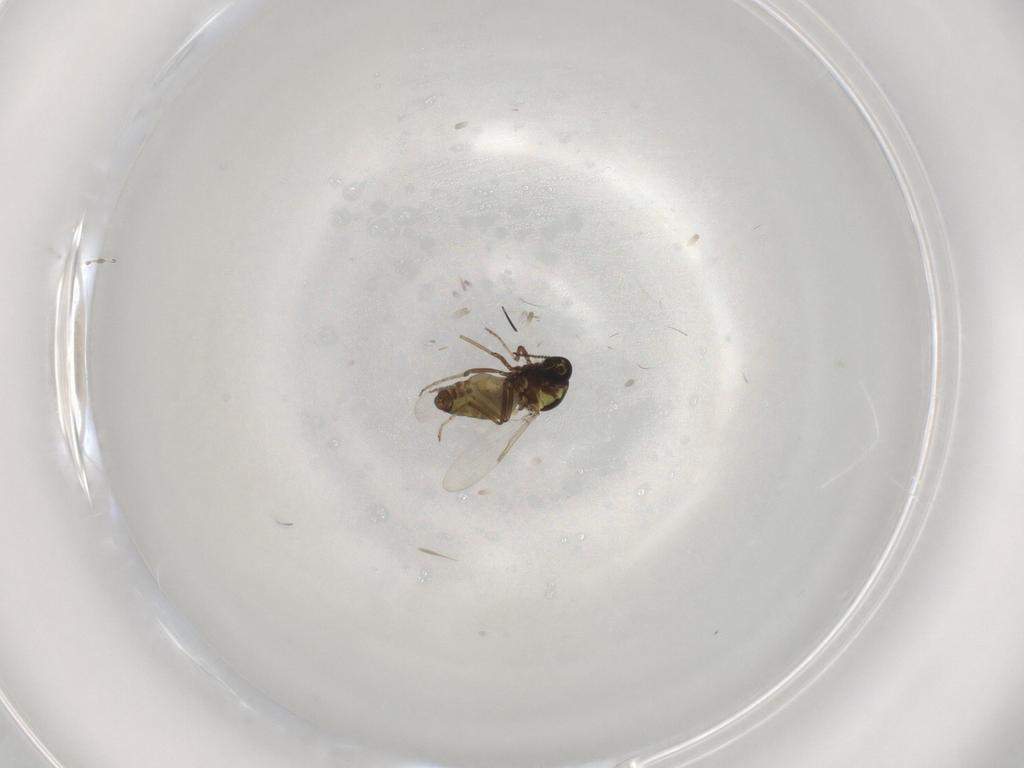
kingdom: Animalia
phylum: Arthropoda
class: Insecta
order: Diptera
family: Ceratopogonidae
